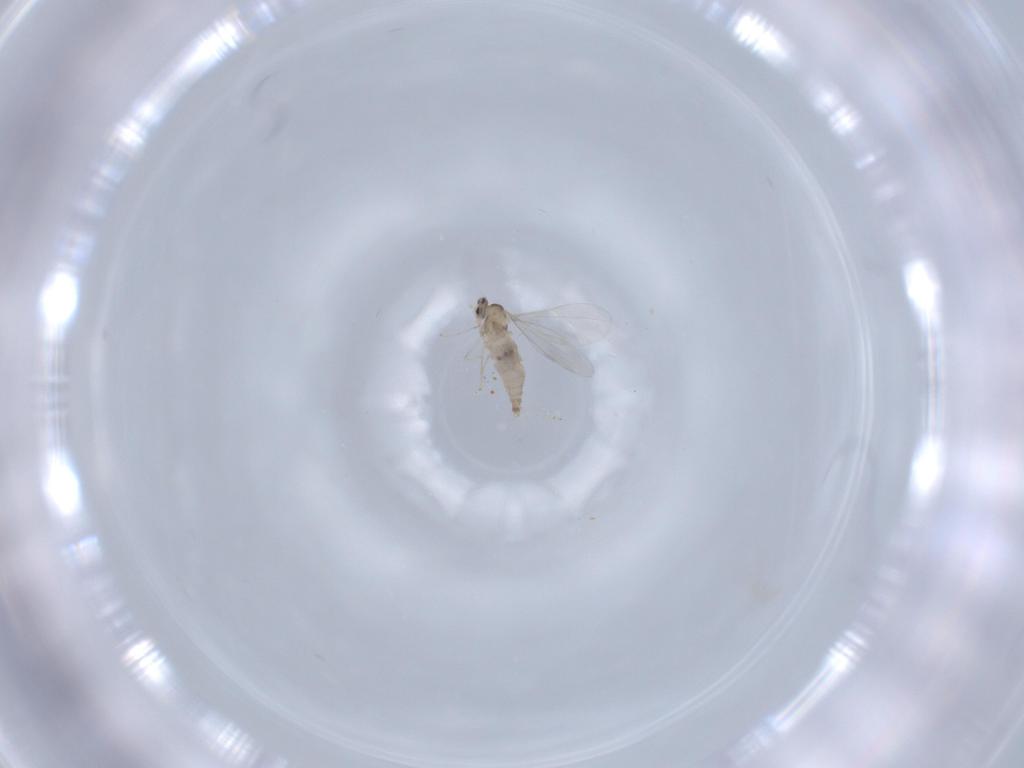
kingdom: Animalia
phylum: Arthropoda
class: Insecta
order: Diptera
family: Cecidomyiidae
